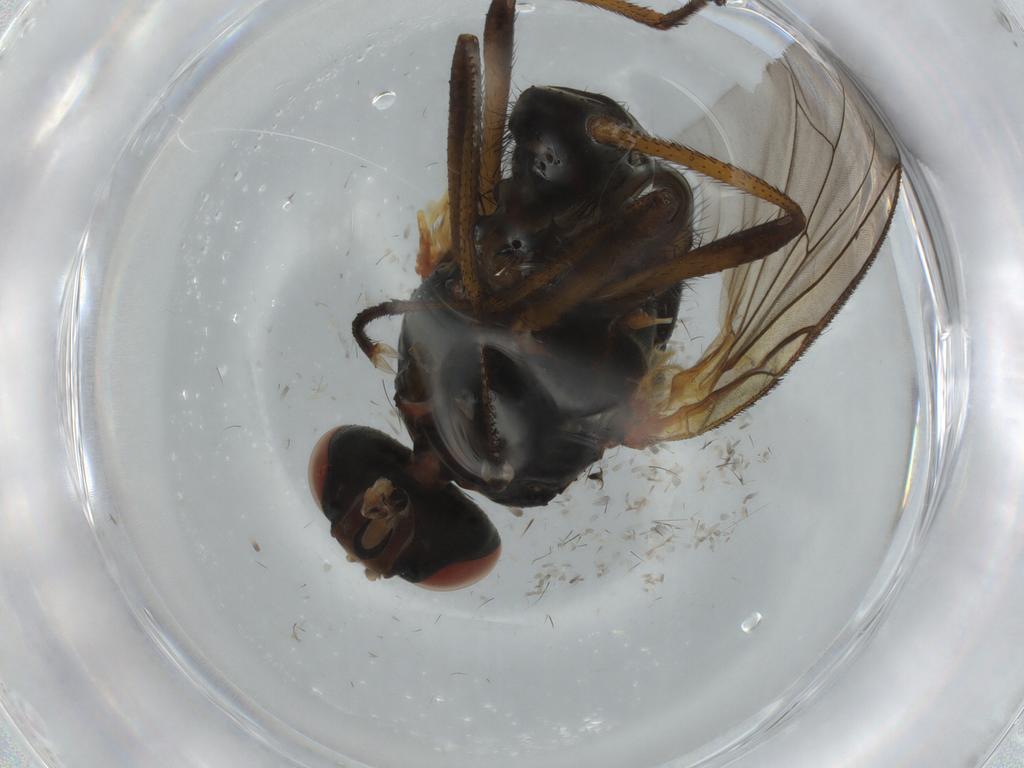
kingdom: Animalia
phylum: Arthropoda
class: Insecta
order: Diptera
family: Anthomyiidae
